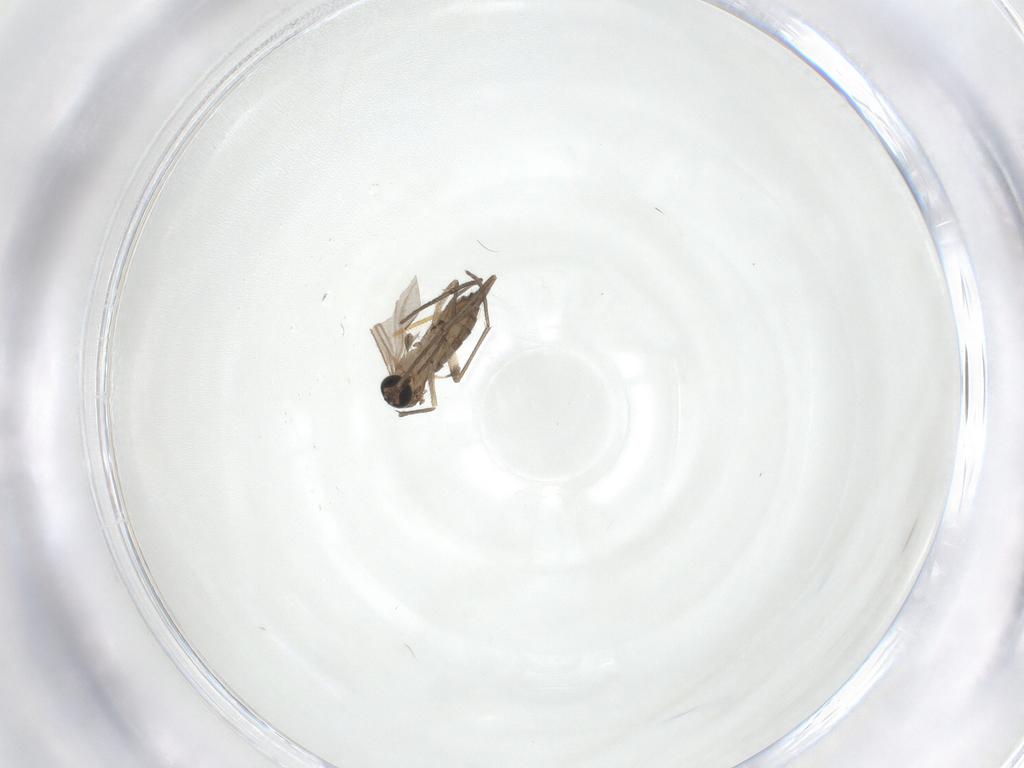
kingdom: Animalia
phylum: Arthropoda
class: Insecta
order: Diptera
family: Sciaridae
